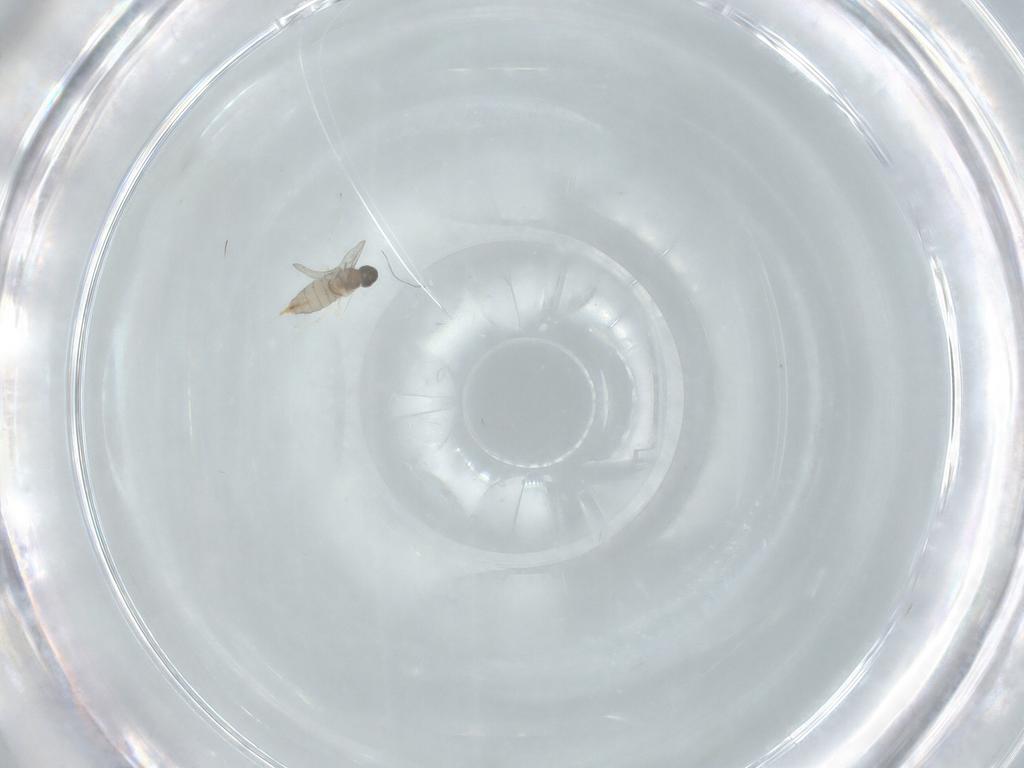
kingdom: Animalia
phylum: Arthropoda
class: Insecta
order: Diptera
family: Cecidomyiidae
